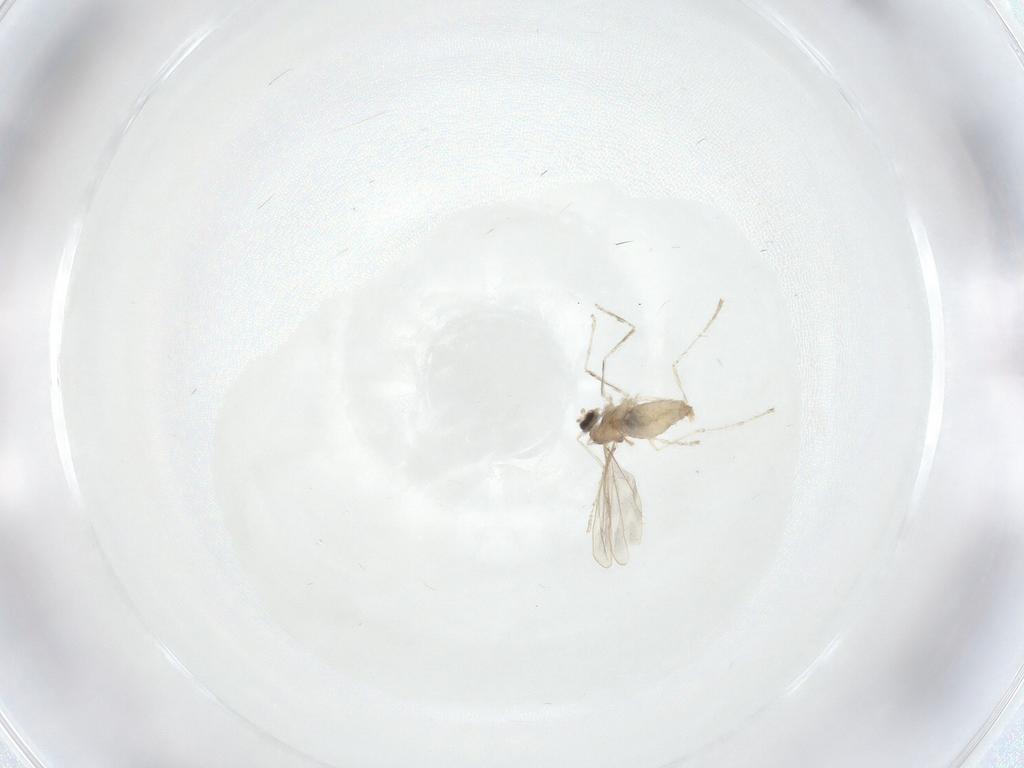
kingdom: Animalia
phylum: Arthropoda
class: Insecta
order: Diptera
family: Cecidomyiidae
